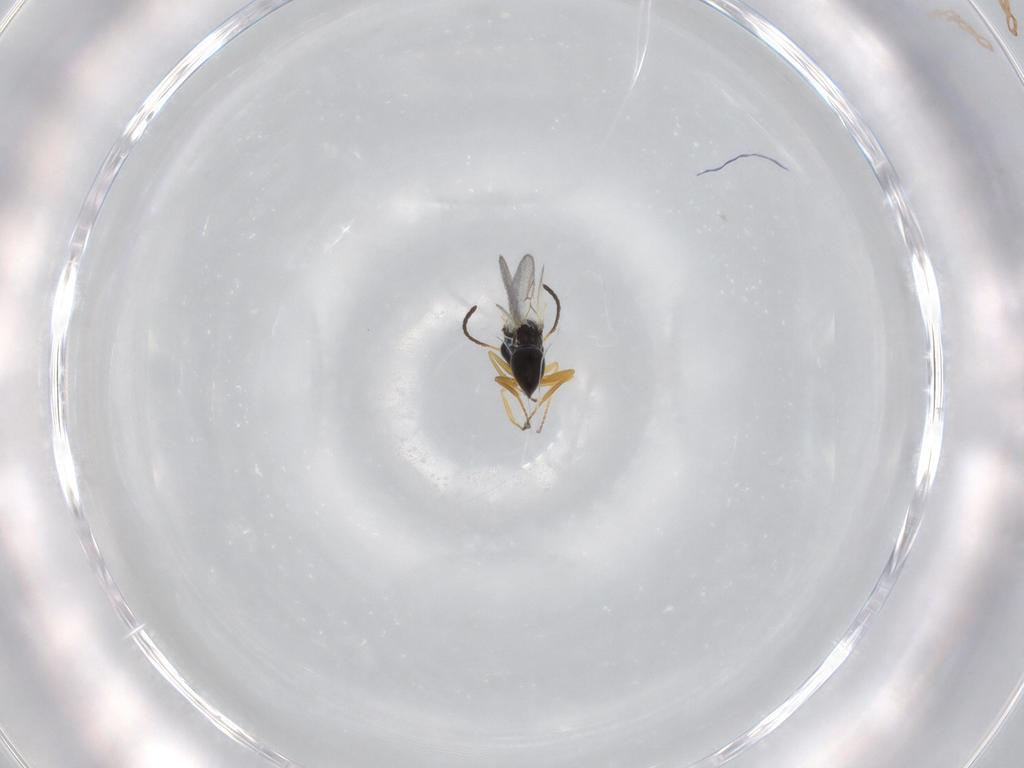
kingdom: Animalia
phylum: Arthropoda
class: Insecta
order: Hymenoptera
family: Figitidae
